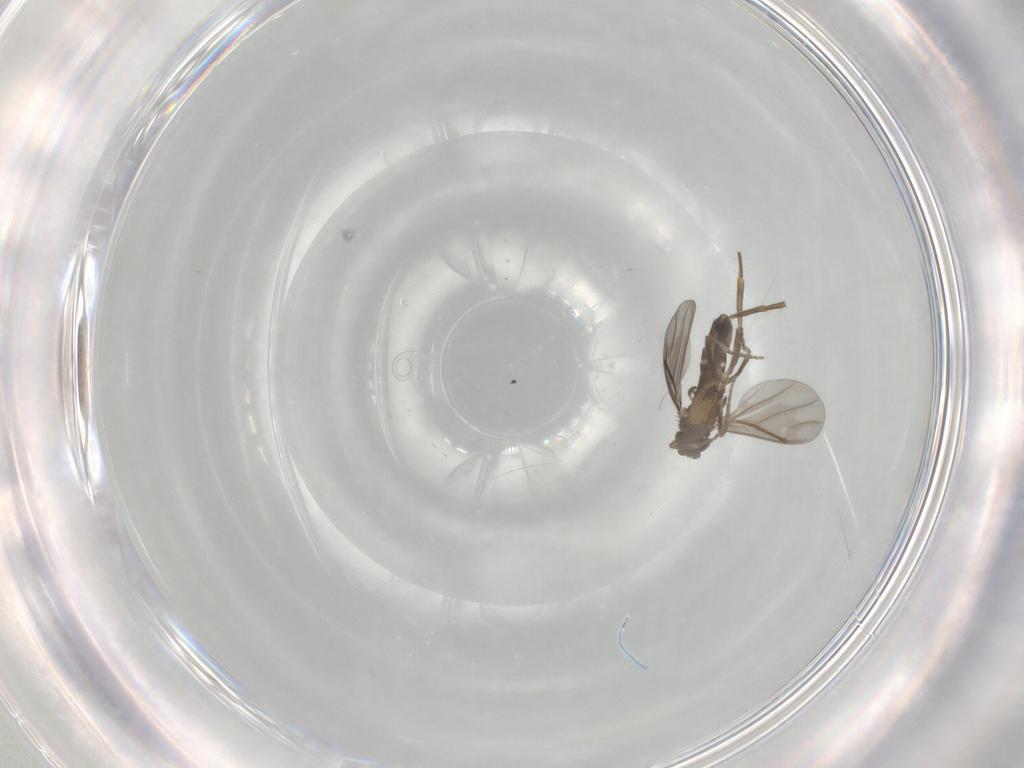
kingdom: Animalia
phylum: Arthropoda
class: Insecta
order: Diptera
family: Phoridae
